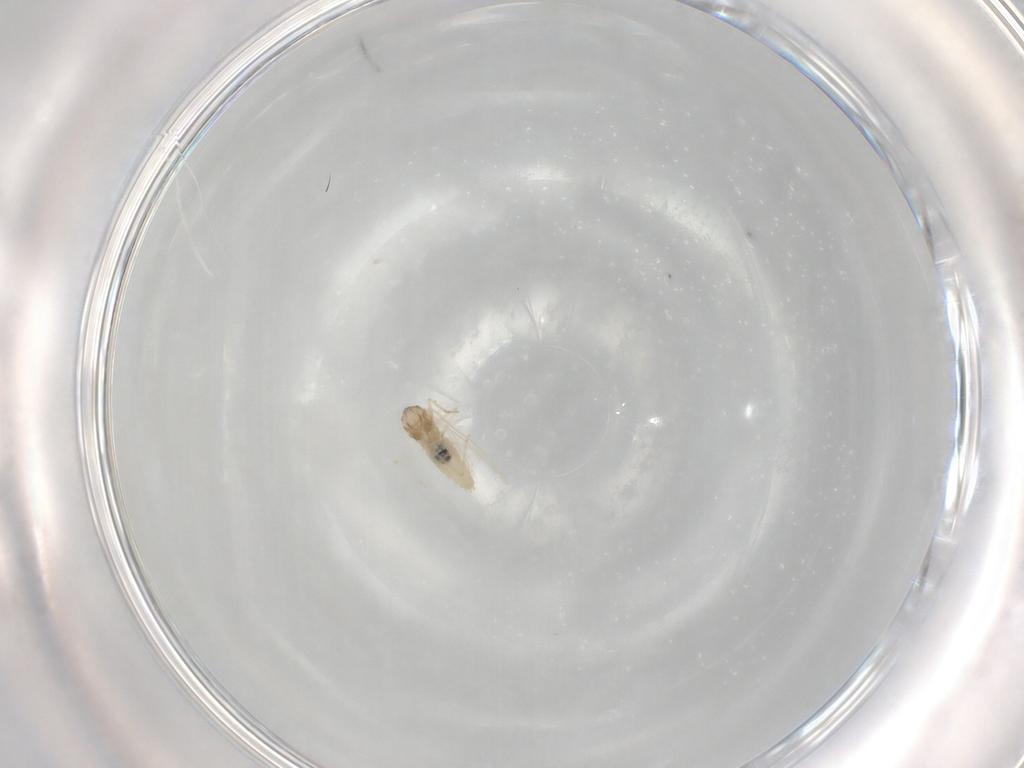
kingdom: Animalia
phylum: Arthropoda
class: Insecta
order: Diptera
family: Cecidomyiidae
